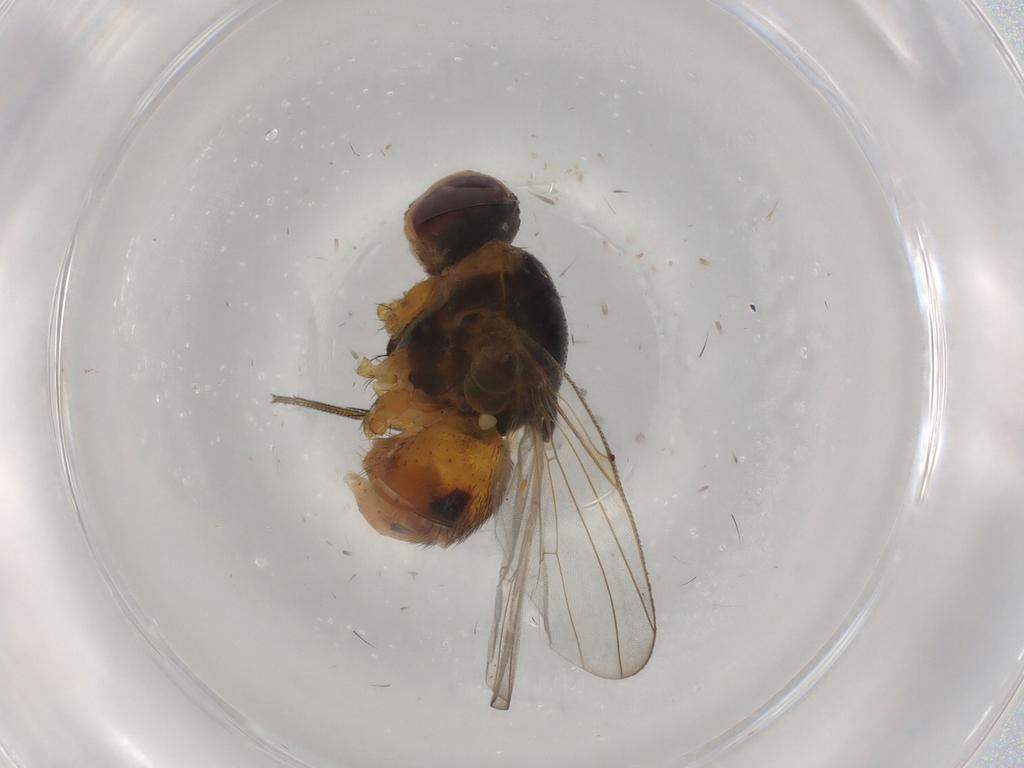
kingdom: Animalia
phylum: Arthropoda
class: Insecta
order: Diptera
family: Muscidae
